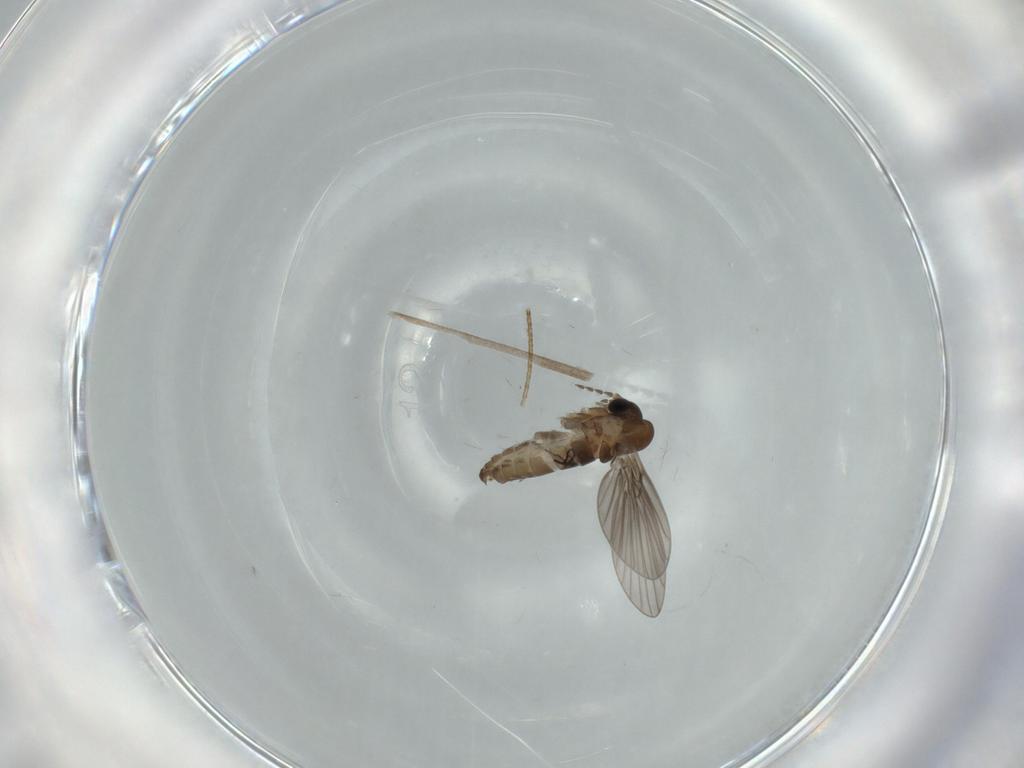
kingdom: Animalia
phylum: Arthropoda
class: Insecta
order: Diptera
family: Psychodidae
